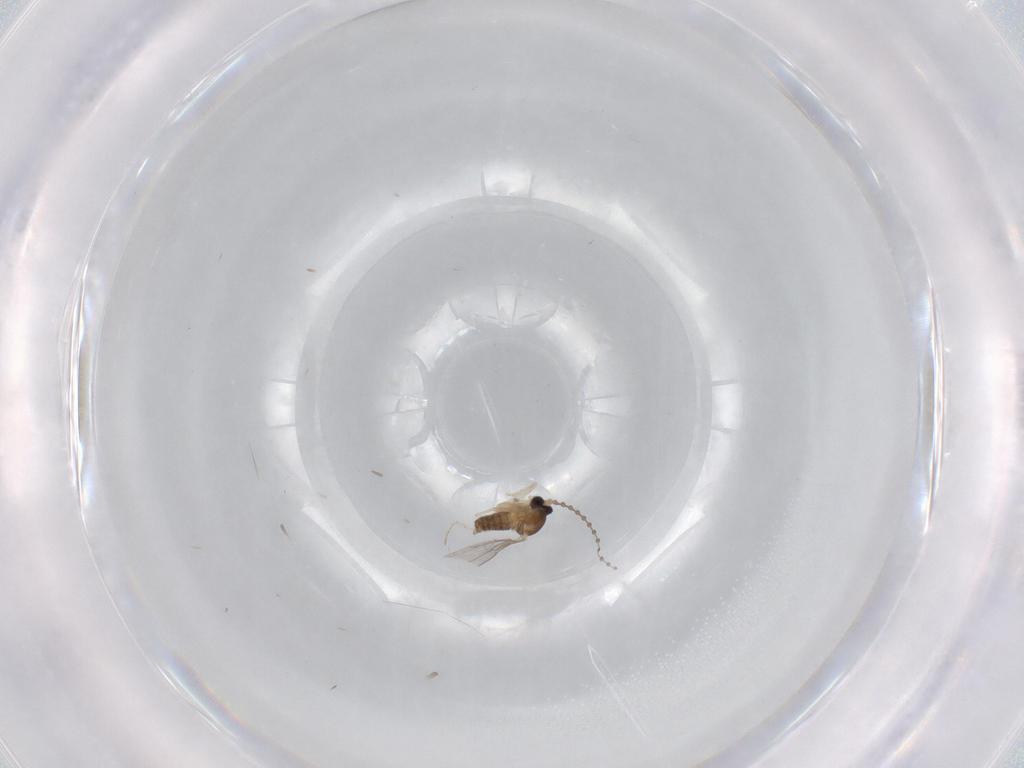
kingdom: Animalia
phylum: Arthropoda
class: Insecta
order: Diptera
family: Cecidomyiidae
